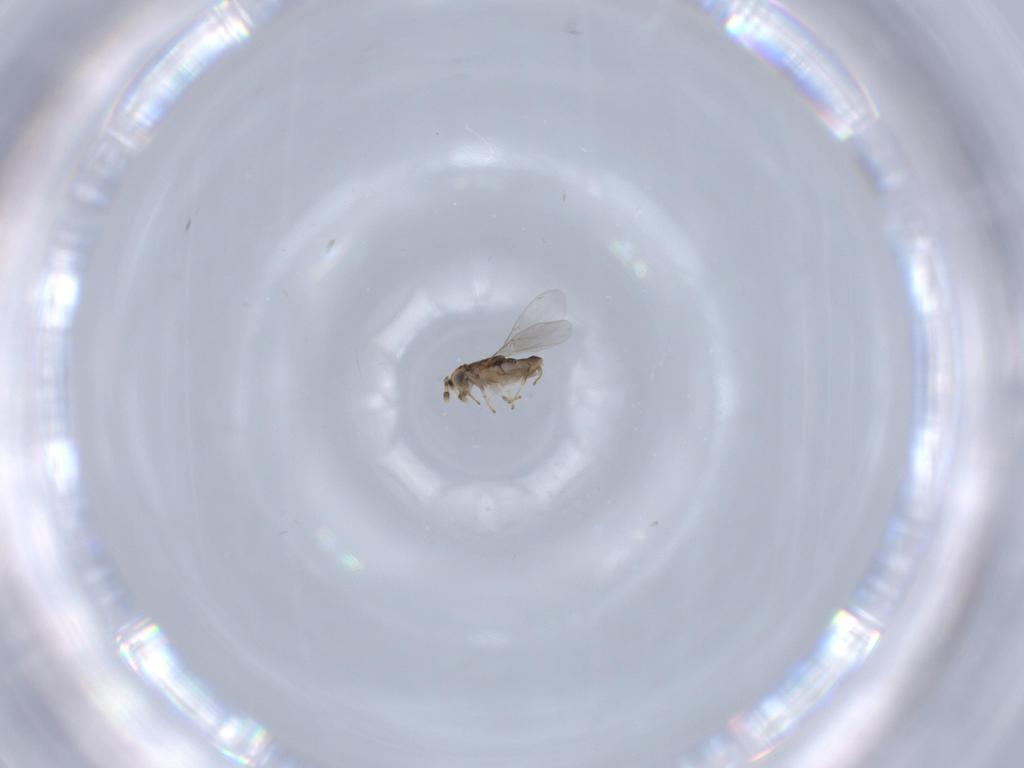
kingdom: Animalia
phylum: Arthropoda
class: Insecta
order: Hymenoptera
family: Encyrtidae
